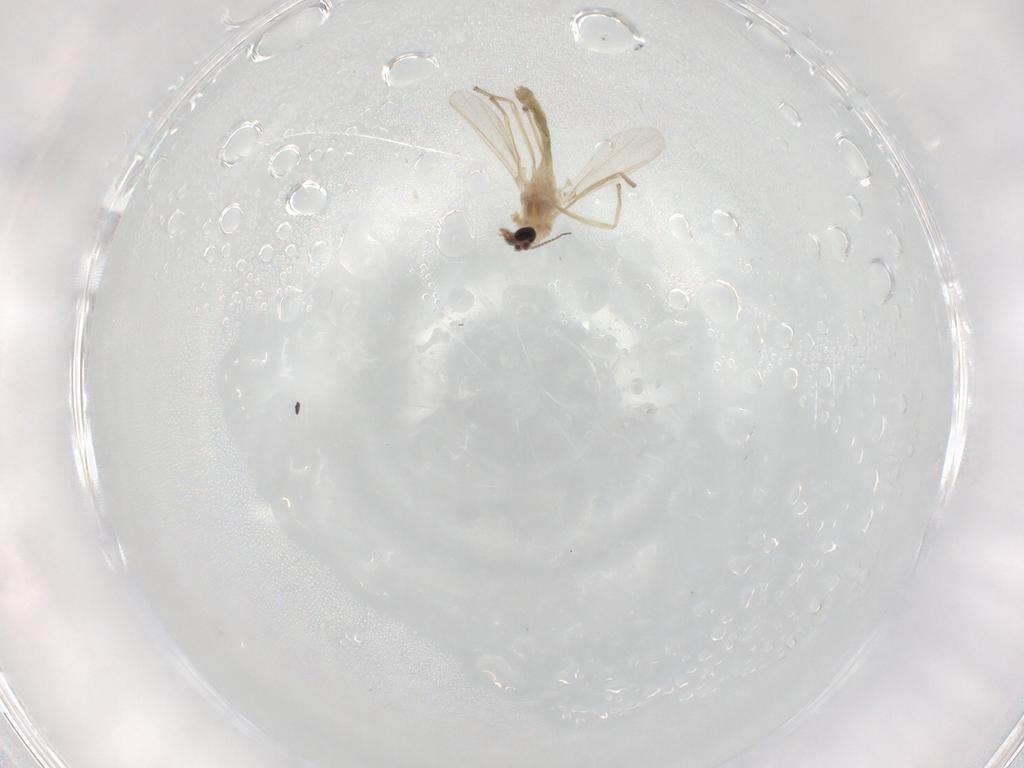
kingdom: Animalia
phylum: Arthropoda
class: Insecta
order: Diptera
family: Chironomidae
